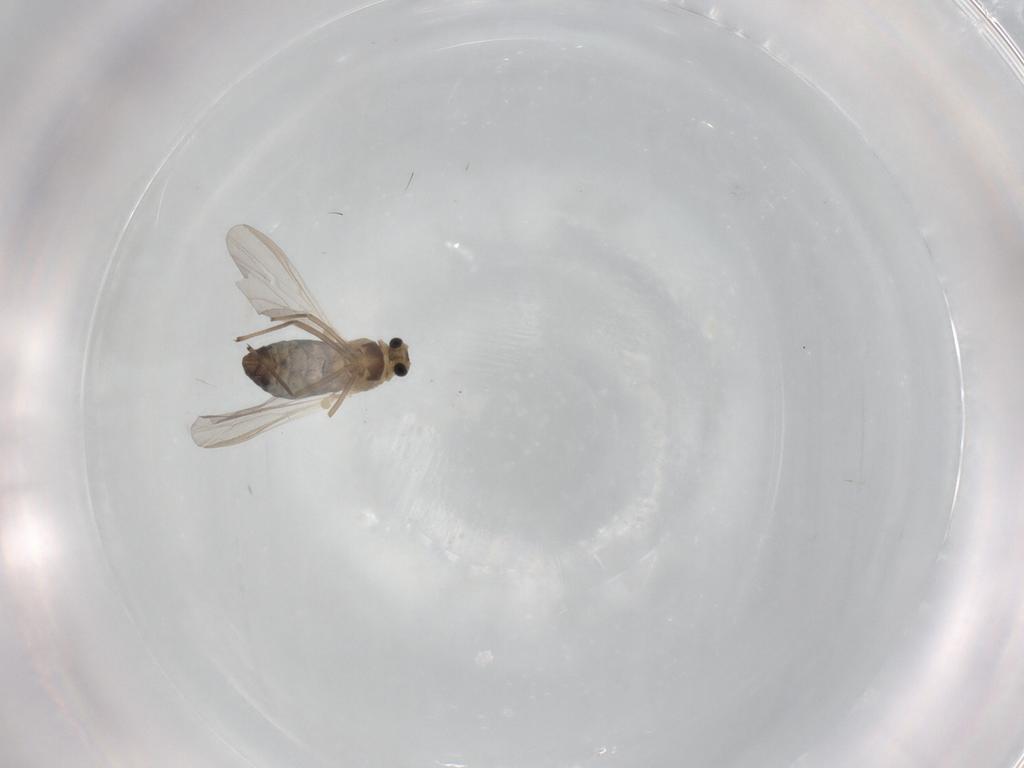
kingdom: Animalia
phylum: Arthropoda
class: Insecta
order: Diptera
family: Chironomidae
